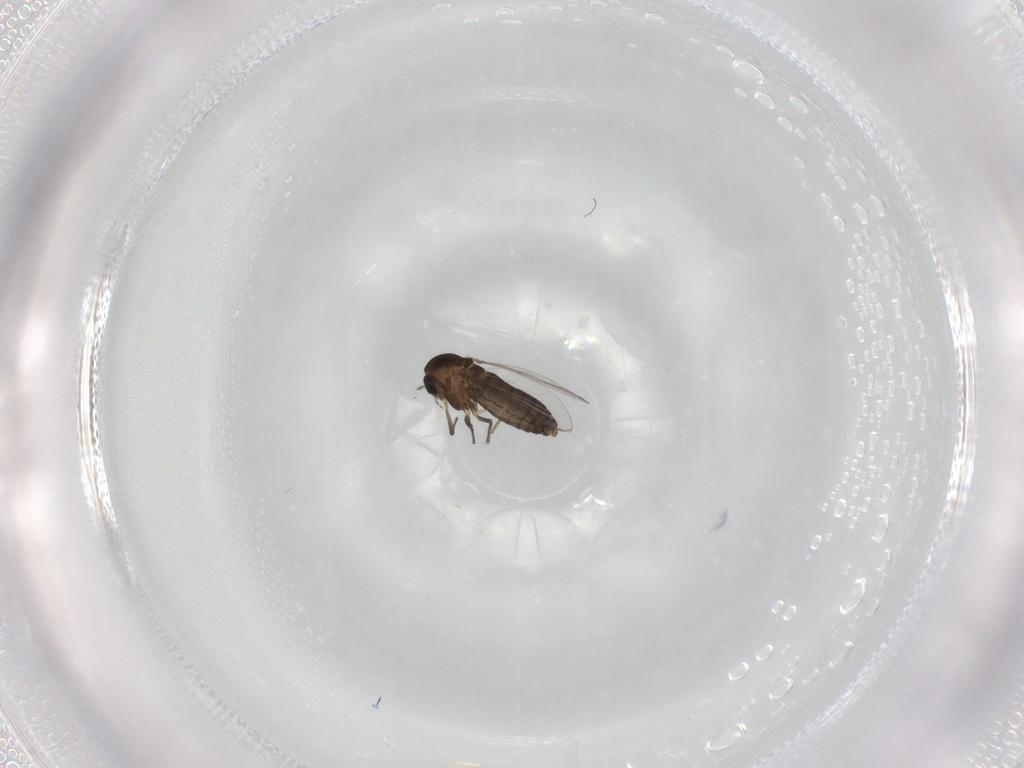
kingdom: Animalia
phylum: Arthropoda
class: Insecta
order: Diptera
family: Chironomidae
